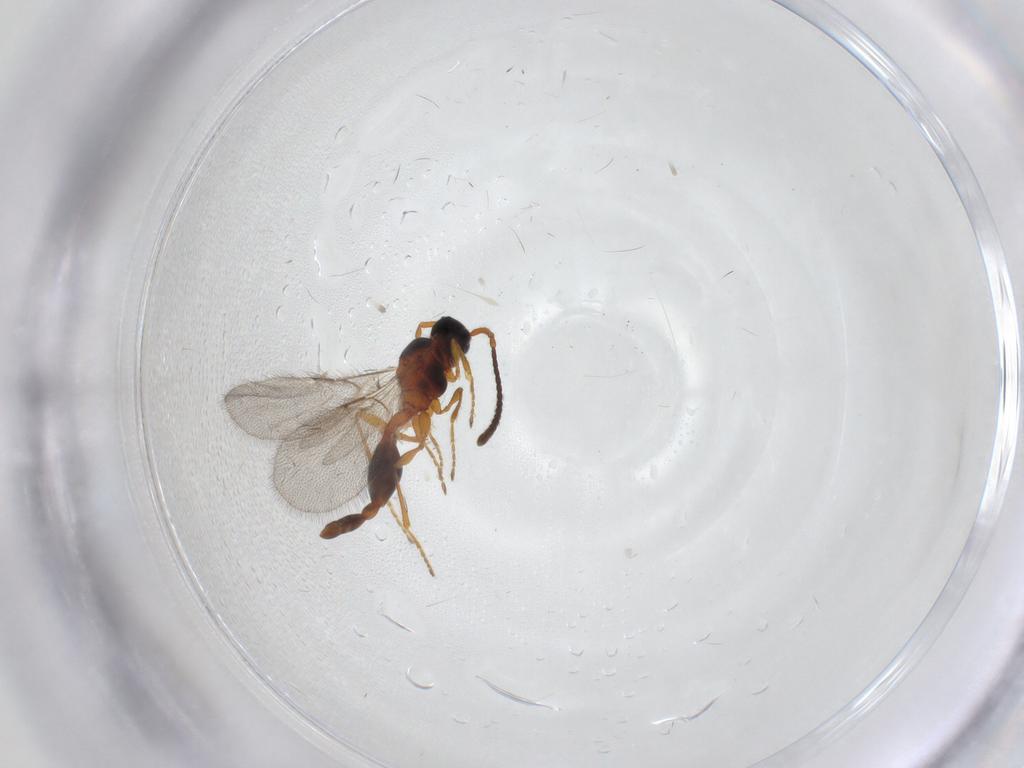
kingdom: Animalia
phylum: Arthropoda
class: Insecta
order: Hymenoptera
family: Diapriidae
